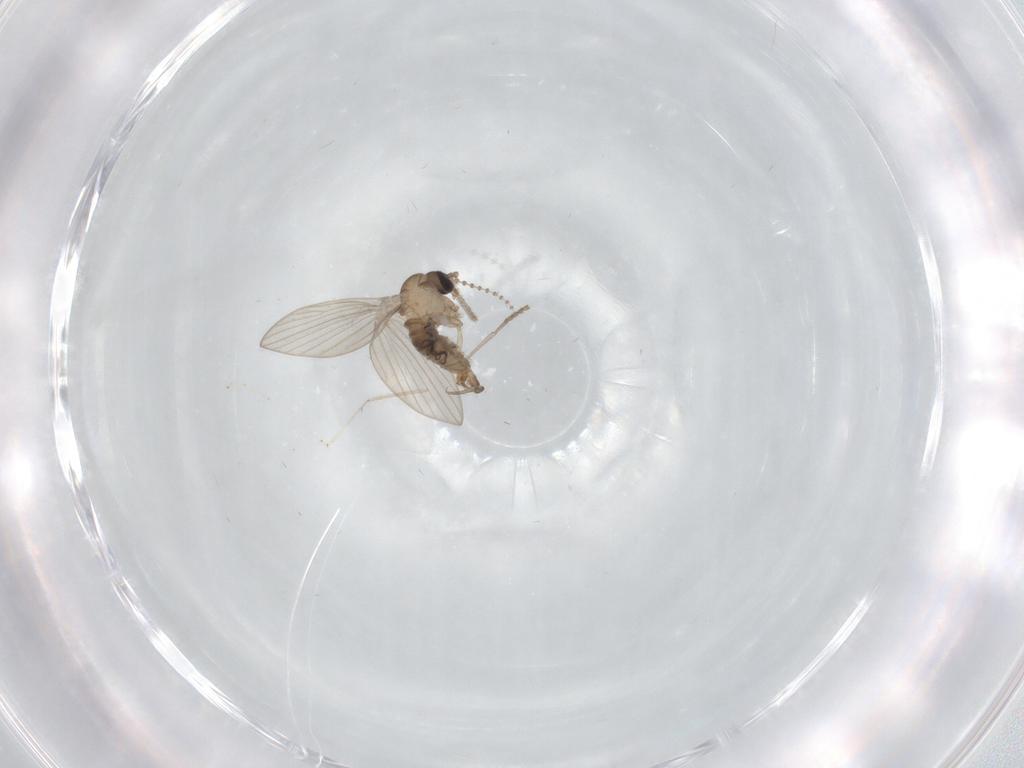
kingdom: Animalia
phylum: Arthropoda
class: Insecta
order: Diptera
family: Psychodidae
